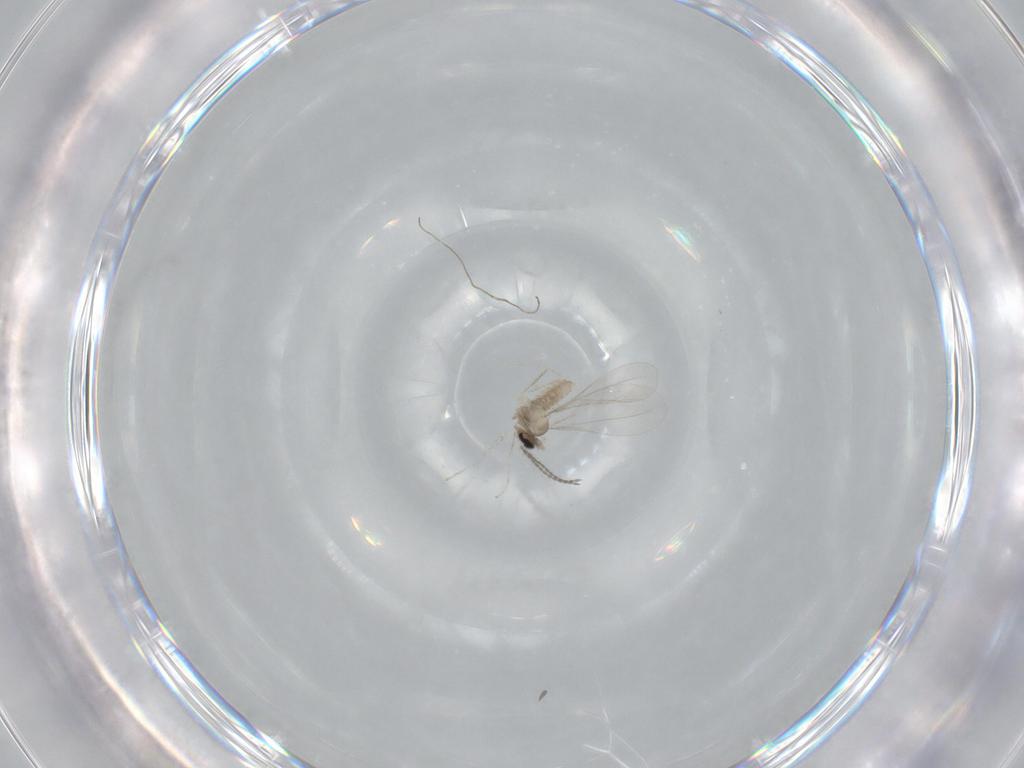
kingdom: Animalia
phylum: Arthropoda
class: Insecta
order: Diptera
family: Cecidomyiidae
